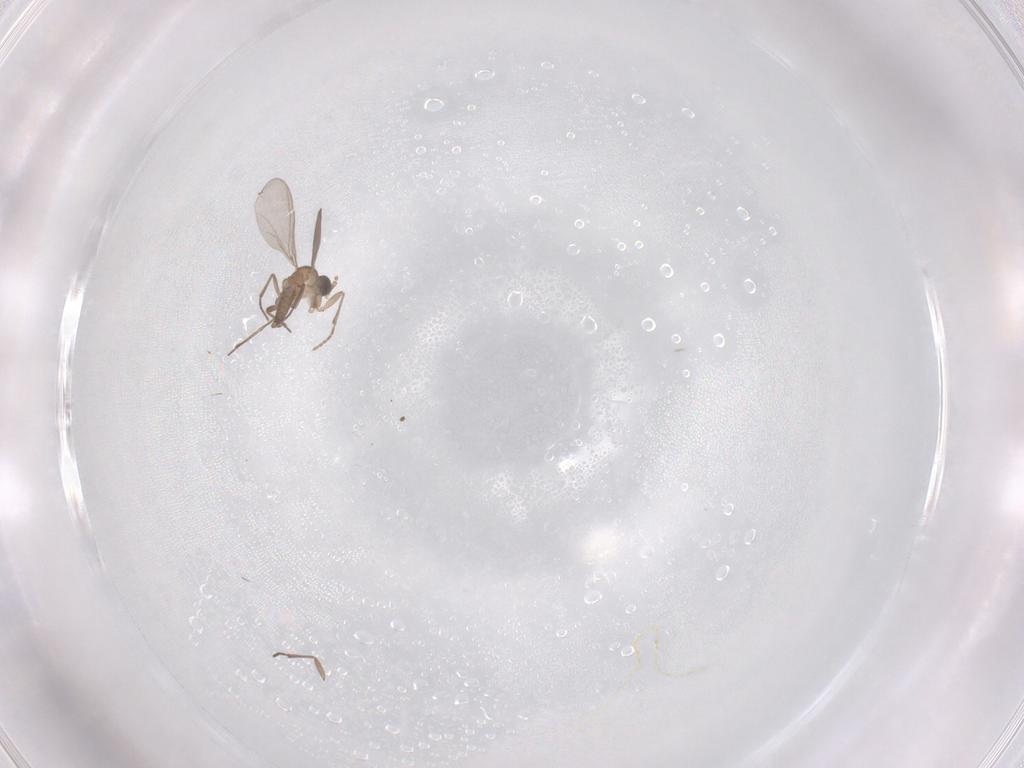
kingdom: Animalia
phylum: Arthropoda
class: Insecta
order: Diptera
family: Sciaridae
